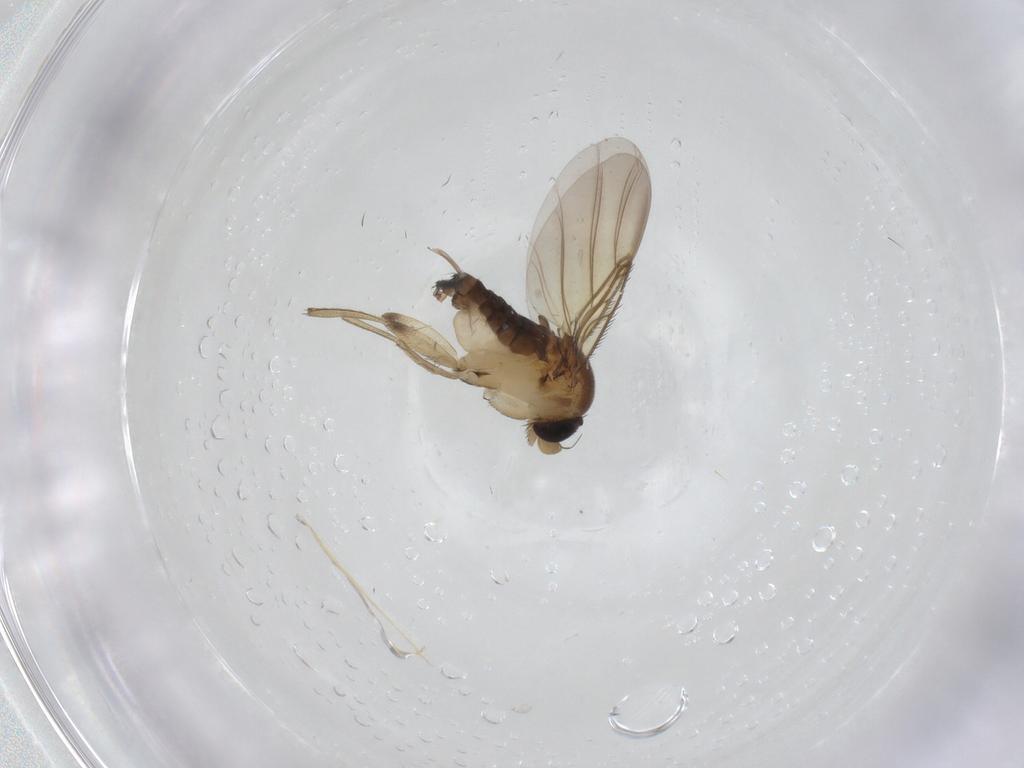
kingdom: Animalia
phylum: Arthropoda
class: Insecta
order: Diptera
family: Phoridae
